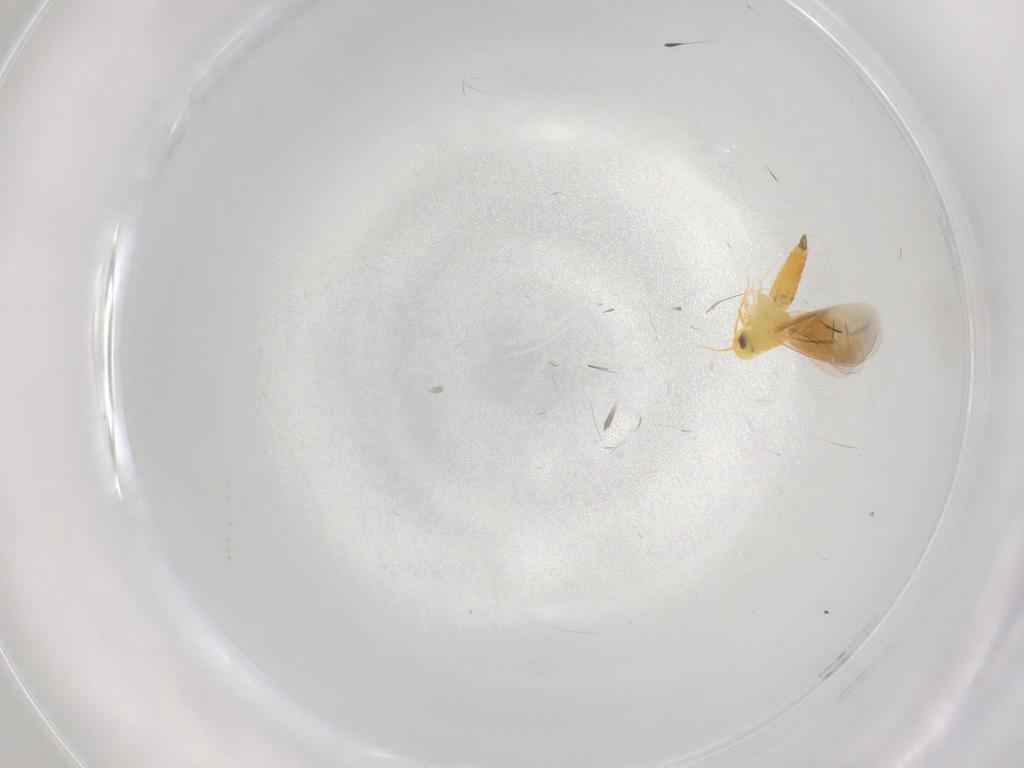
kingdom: Animalia
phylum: Arthropoda
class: Insecta
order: Hemiptera
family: Aleyrodidae
